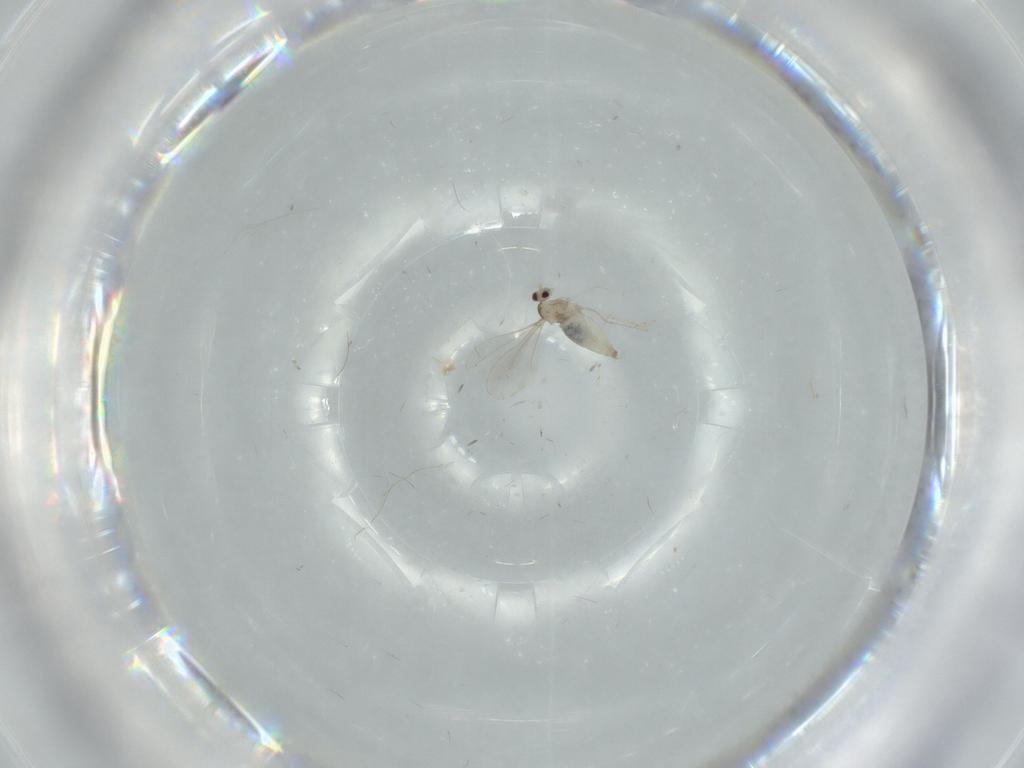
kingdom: Animalia
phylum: Arthropoda
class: Insecta
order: Diptera
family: Cecidomyiidae
